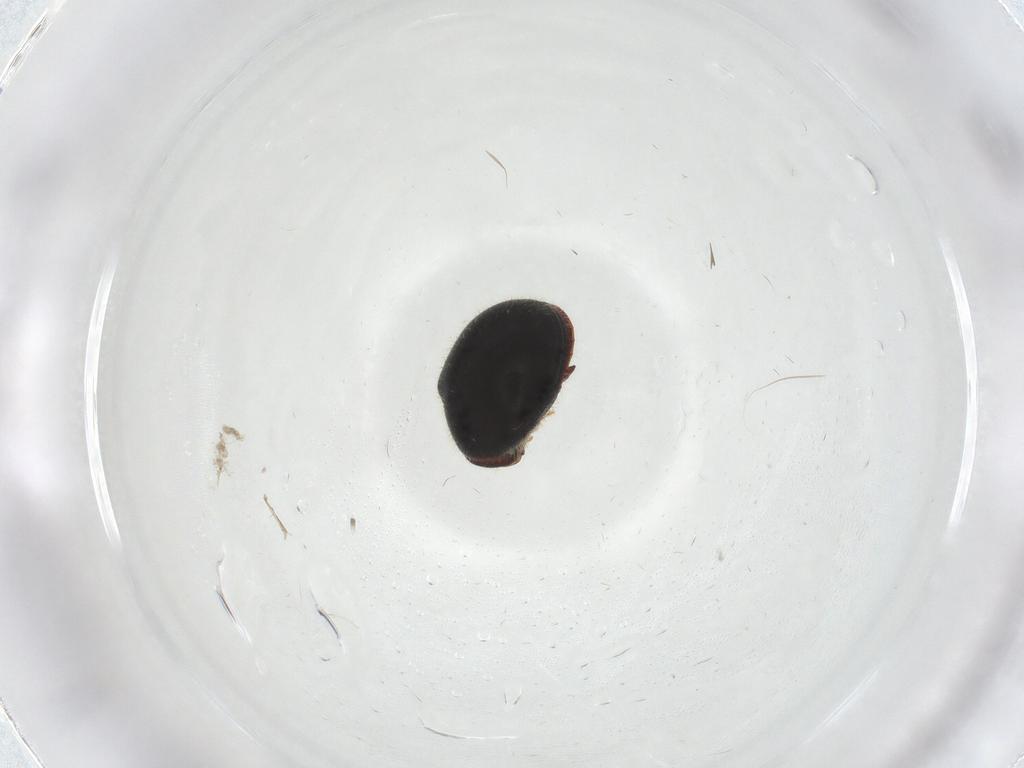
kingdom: Animalia
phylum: Arthropoda
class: Insecta
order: Coleoptera
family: Ptinidae
